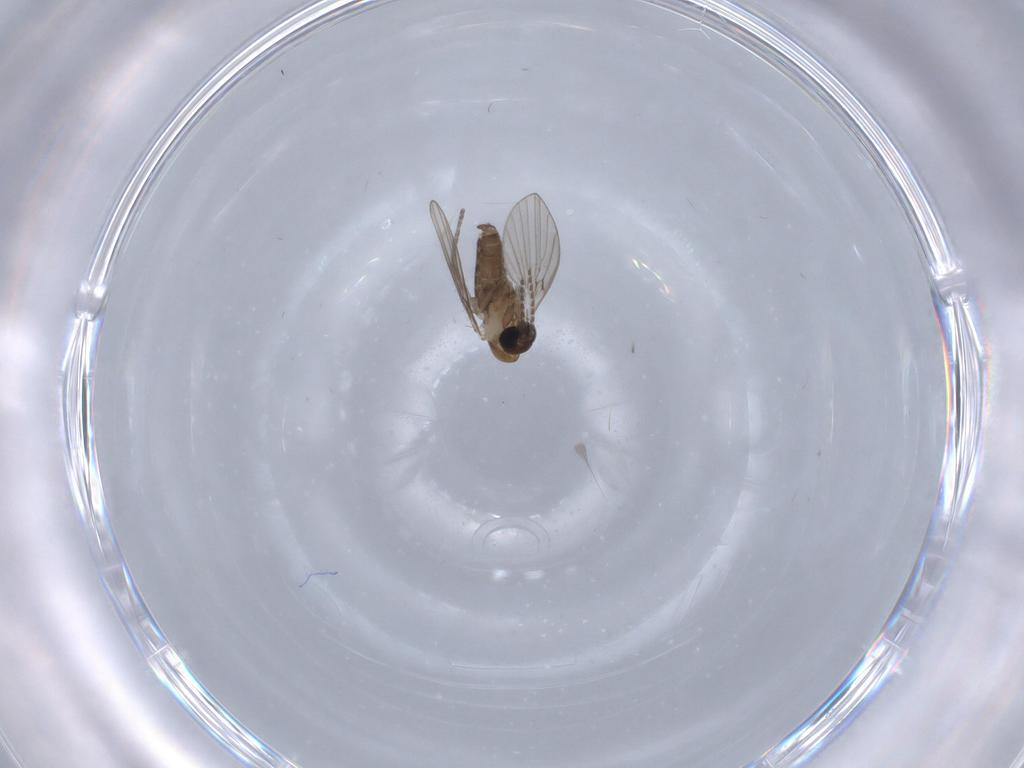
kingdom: Animalia
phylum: Arthropoda
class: Insecta
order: Diptera
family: Phoridae
